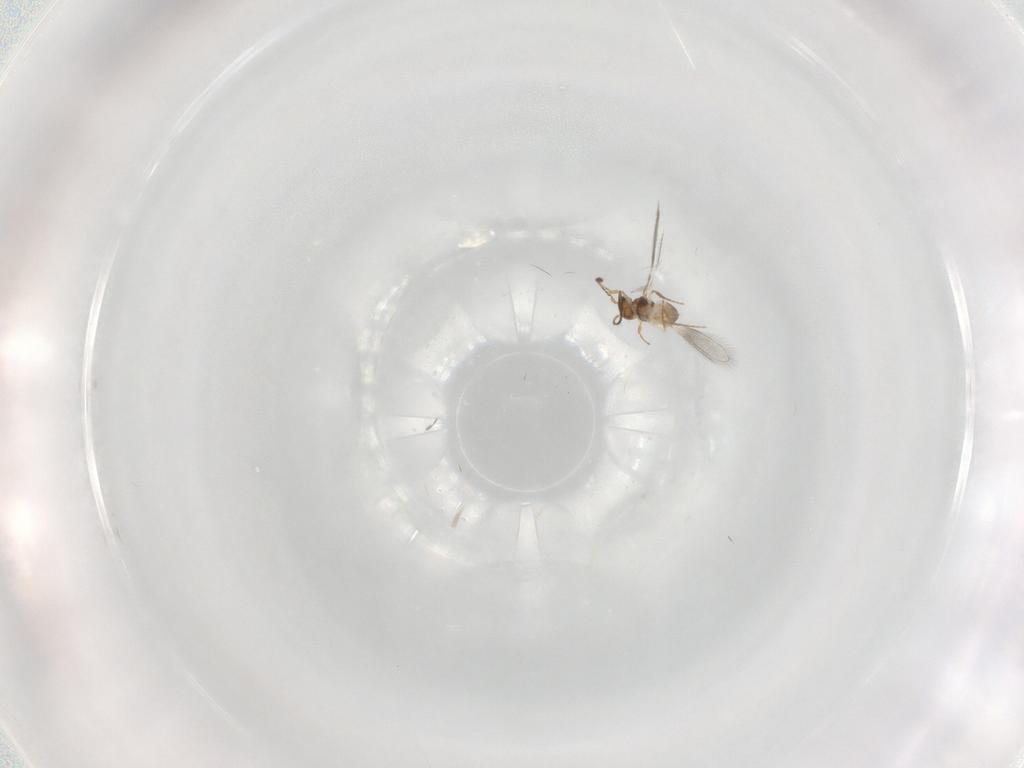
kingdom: Animalia
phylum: Arthropoda
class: Insecta
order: Hymenoptera
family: Mymaridae
